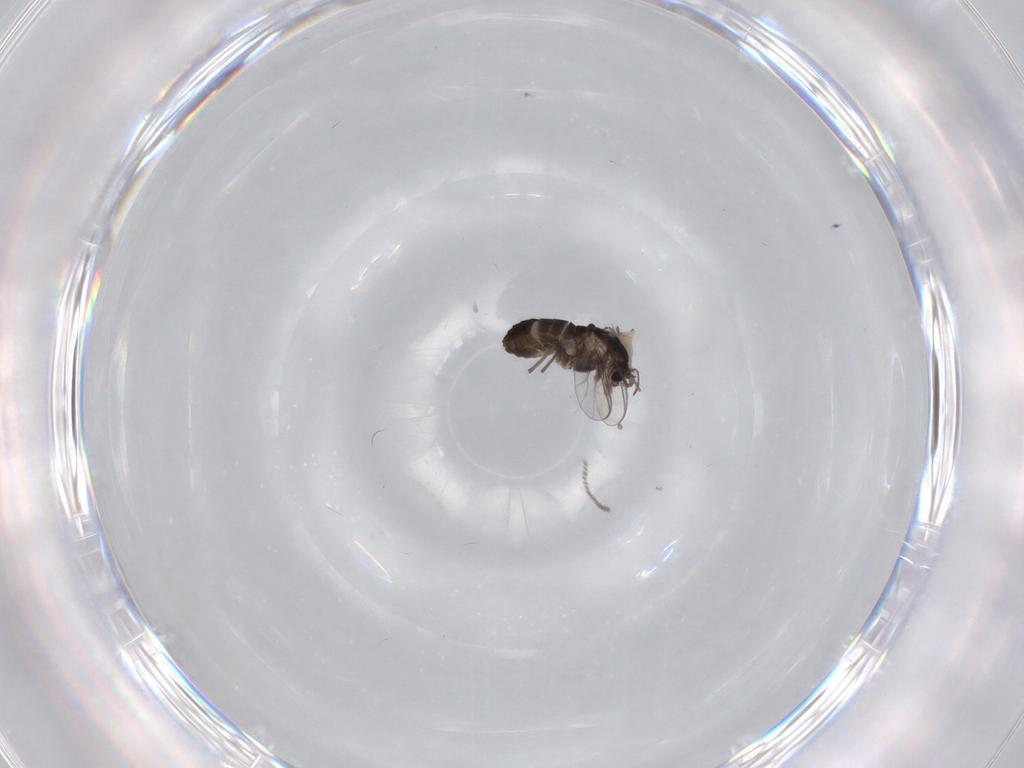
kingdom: Animalia
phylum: Arthropoda
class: Insecta
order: Diptera
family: Chironomidae
